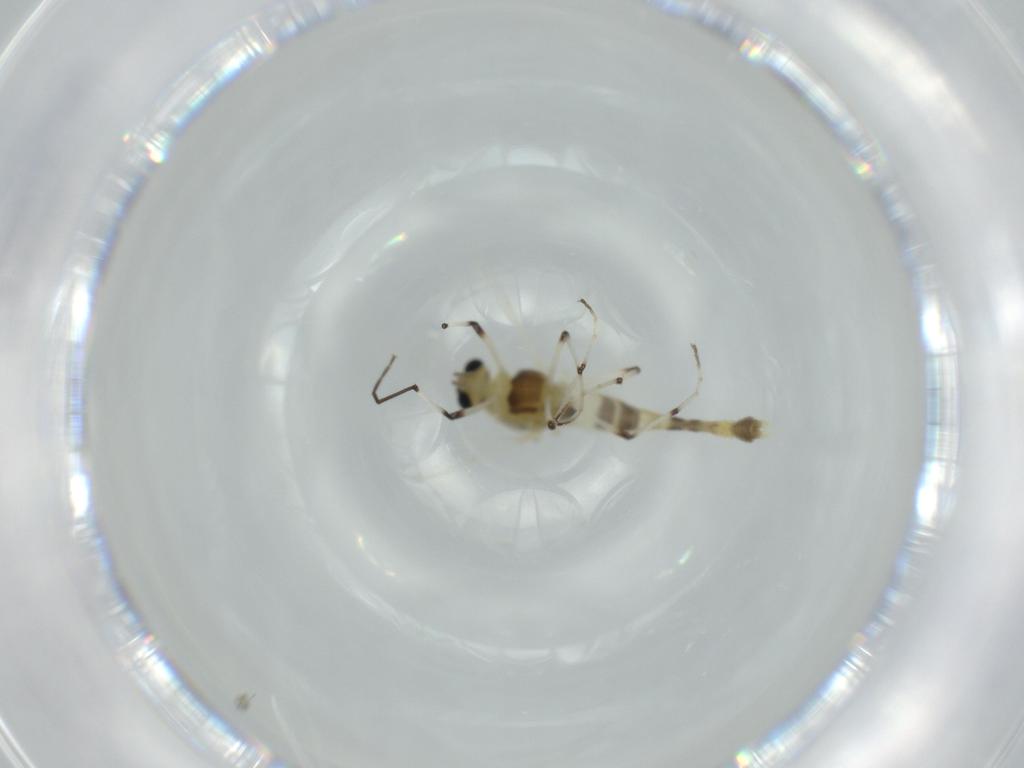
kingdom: Animalia
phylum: Arthropoda
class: Insecta
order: Diptera
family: Chironomidae
